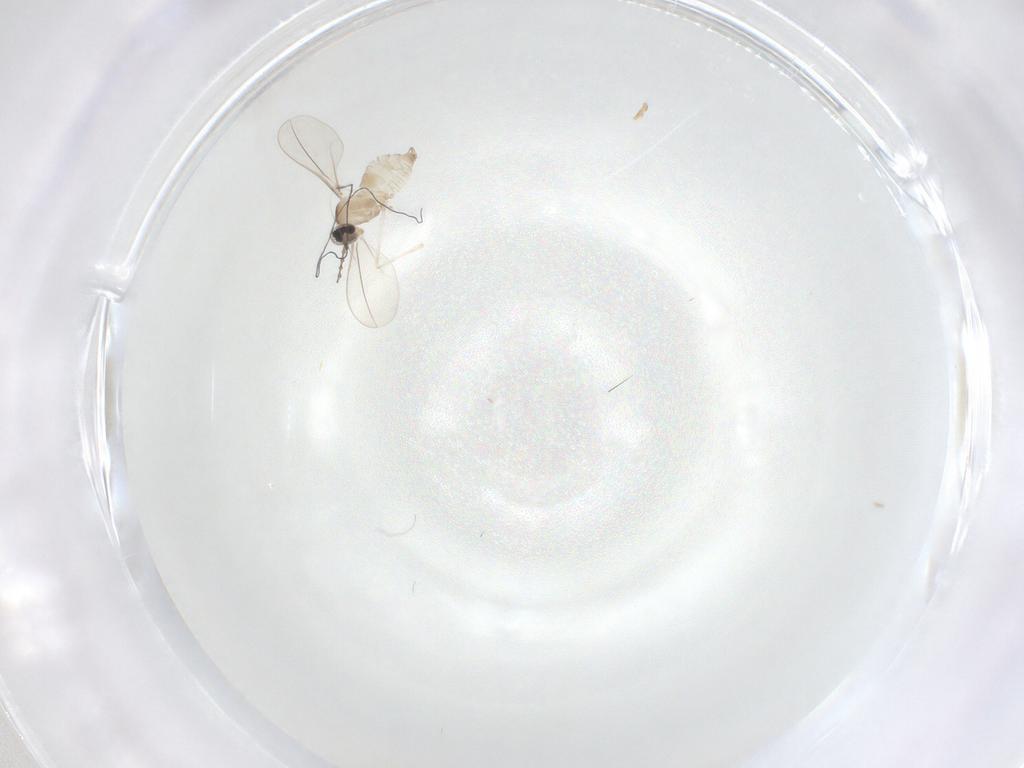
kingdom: Animalia
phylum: Arthropoda
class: Insecta
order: Diptera
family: Cecidomyiidae
